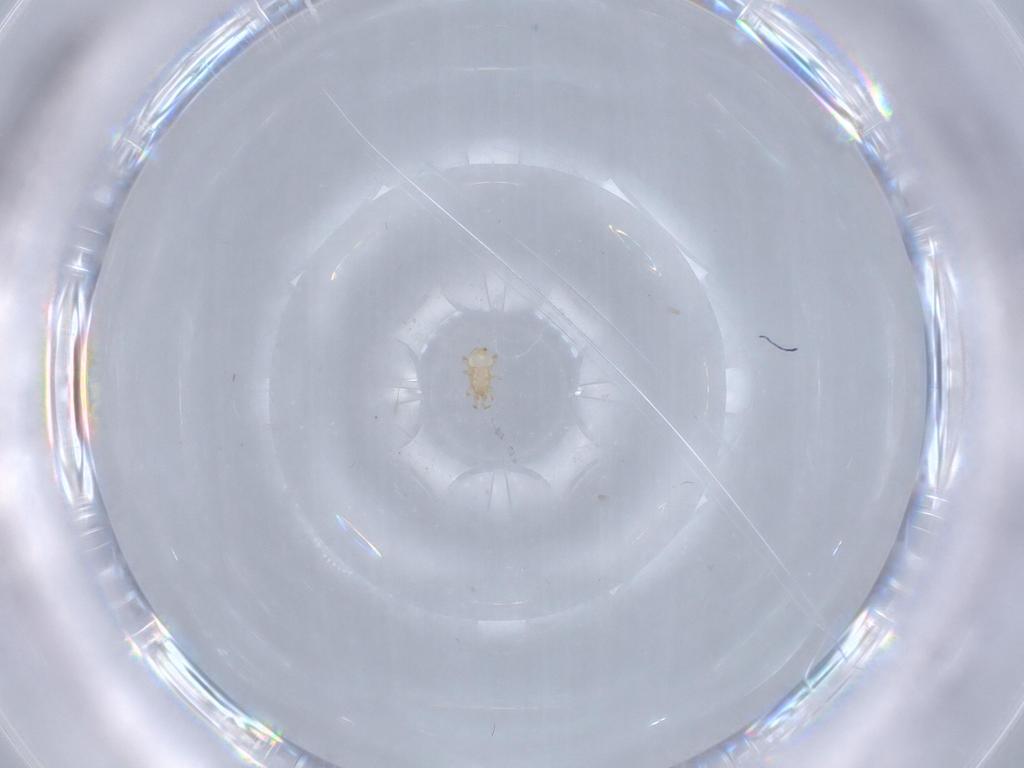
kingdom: Animalia
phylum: Arthropoda
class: Arachnida
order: Mesostigmata
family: Ascidae
